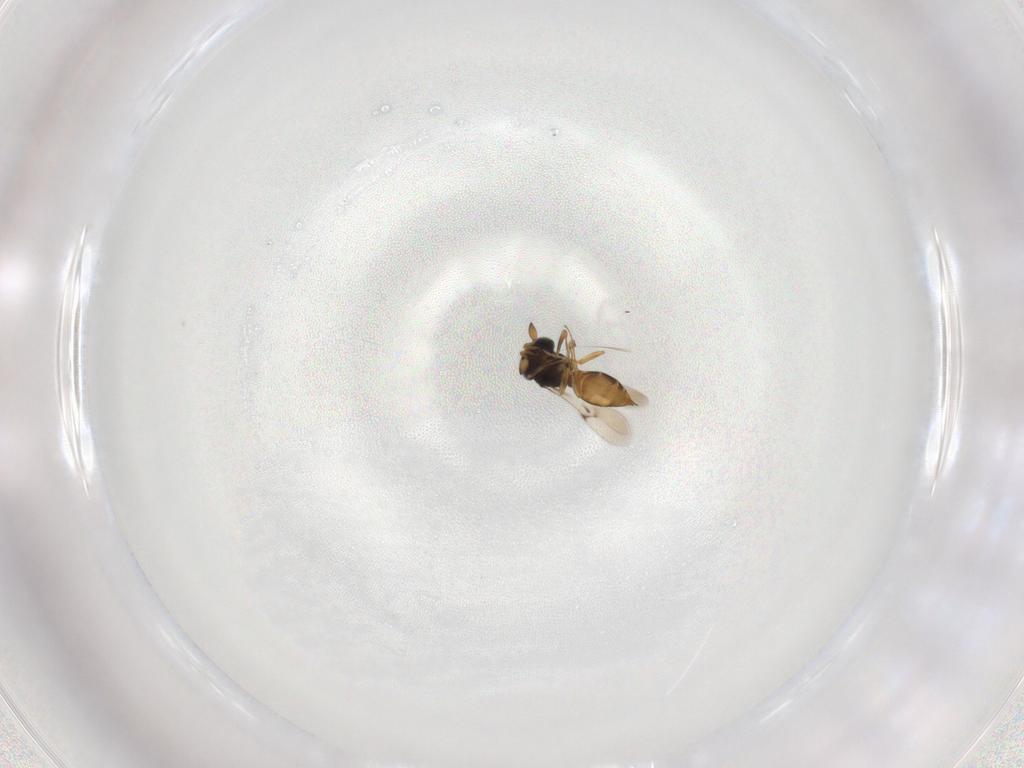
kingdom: Animalia
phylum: Arthropoda
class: Insecta
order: Hymenoptera
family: Scelionidae
